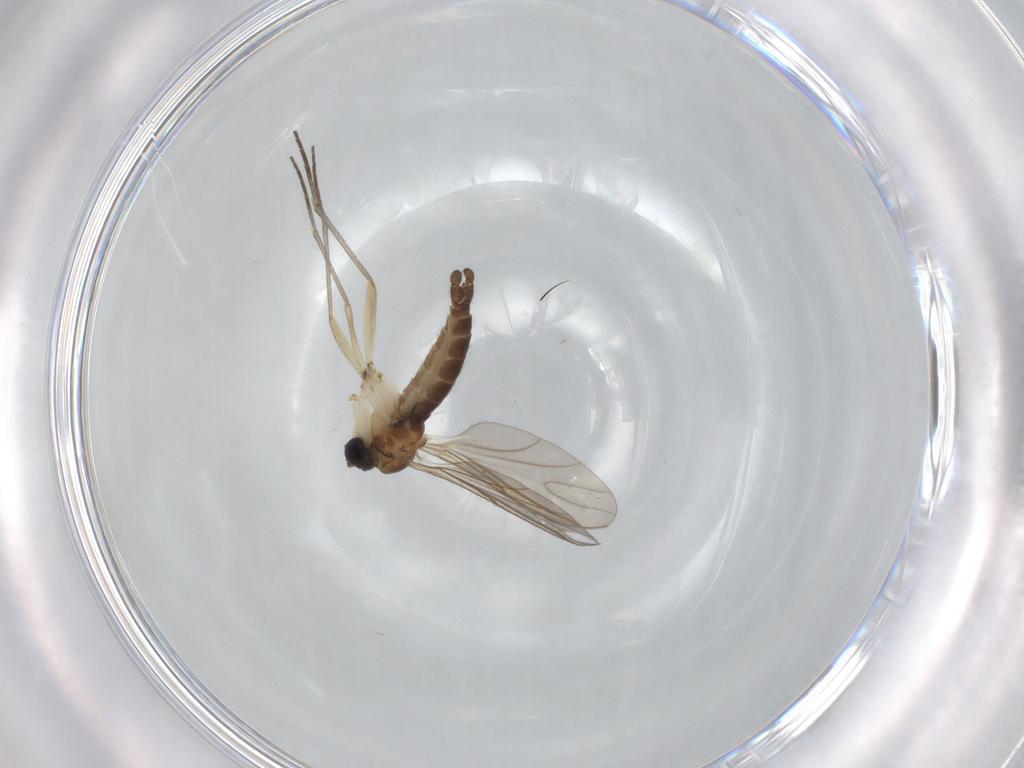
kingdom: Animalia
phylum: Arthropoda
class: Insecta
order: Diptera
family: Sciaridae
